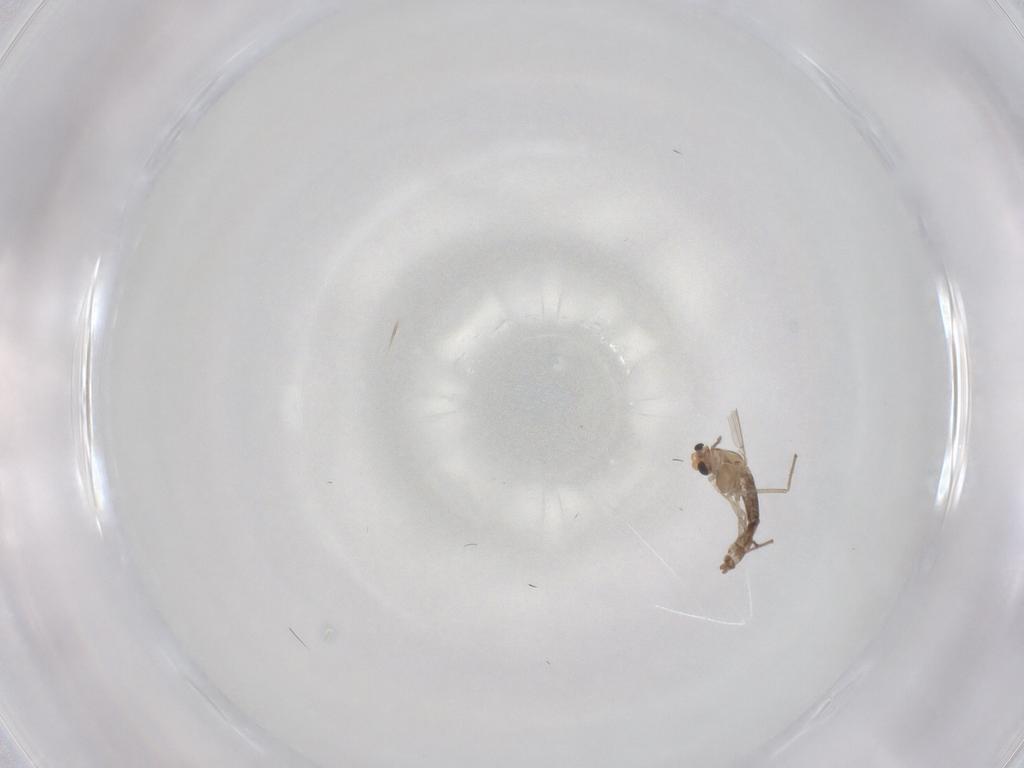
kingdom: Animalia
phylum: Arthropoda
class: Insecta
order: Diptera
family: Chironomidae
